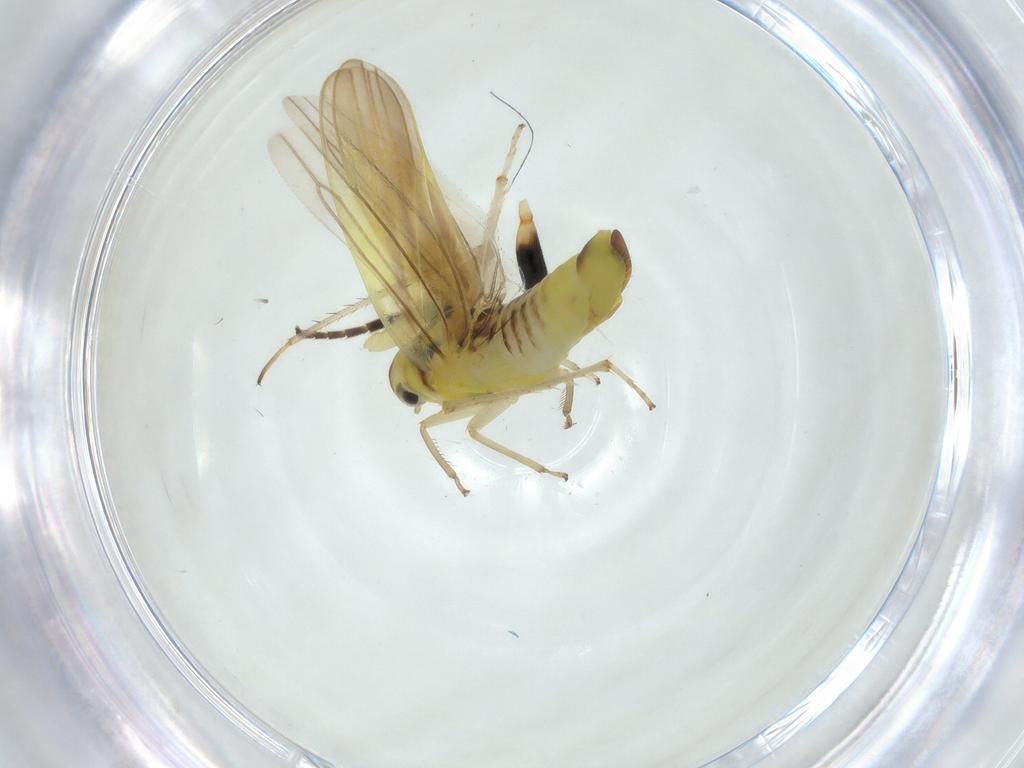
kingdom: Animalia
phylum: Arthropoda
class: Insecta
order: Hemiptera
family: Cicadellidae
